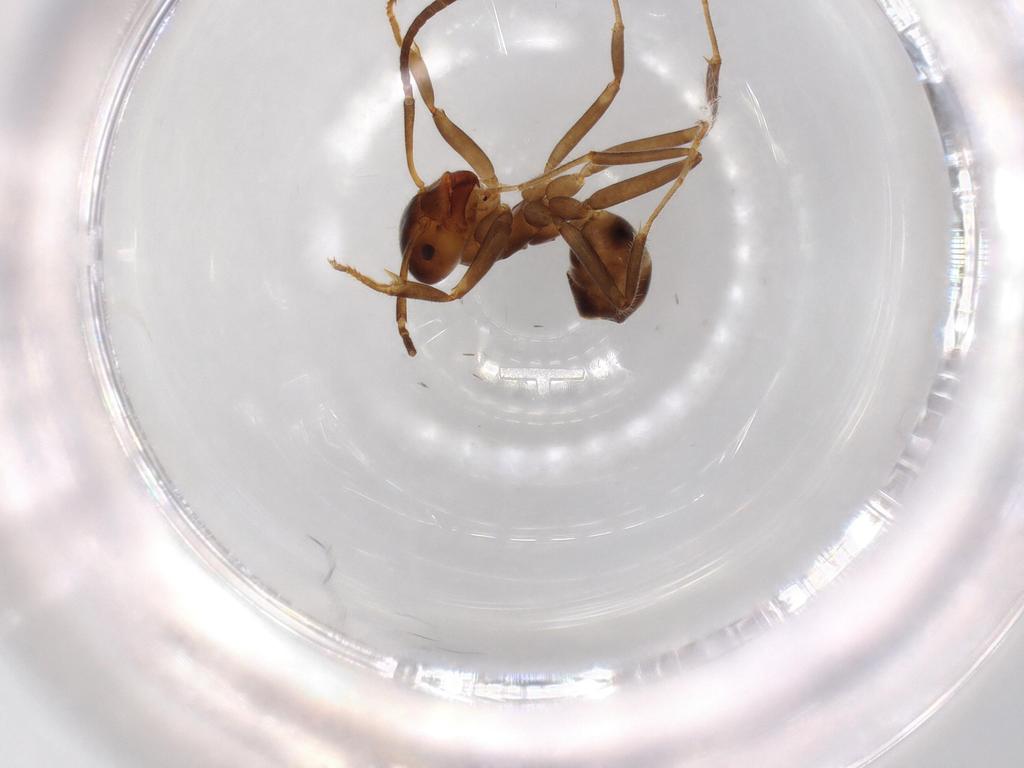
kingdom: Animalia
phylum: Arthropoda
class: Insecta
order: Hymenoptera
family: Formicidae
